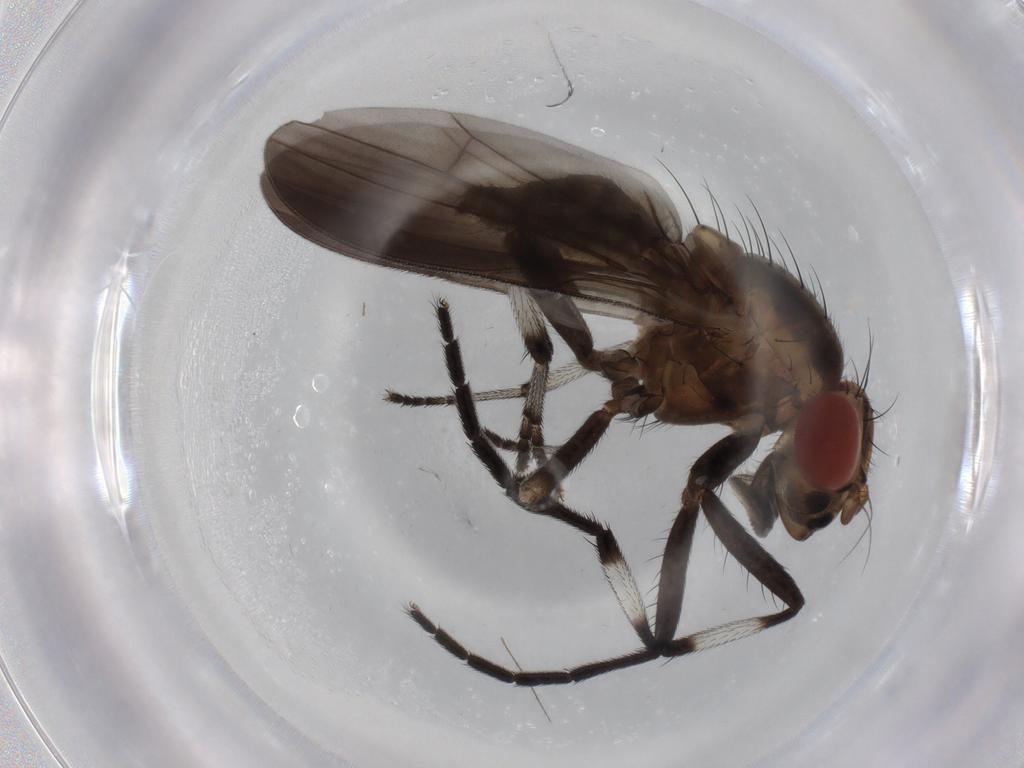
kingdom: Animalia
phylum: Arthropoda
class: Insecta
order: Diptera
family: Lauxaniidae
